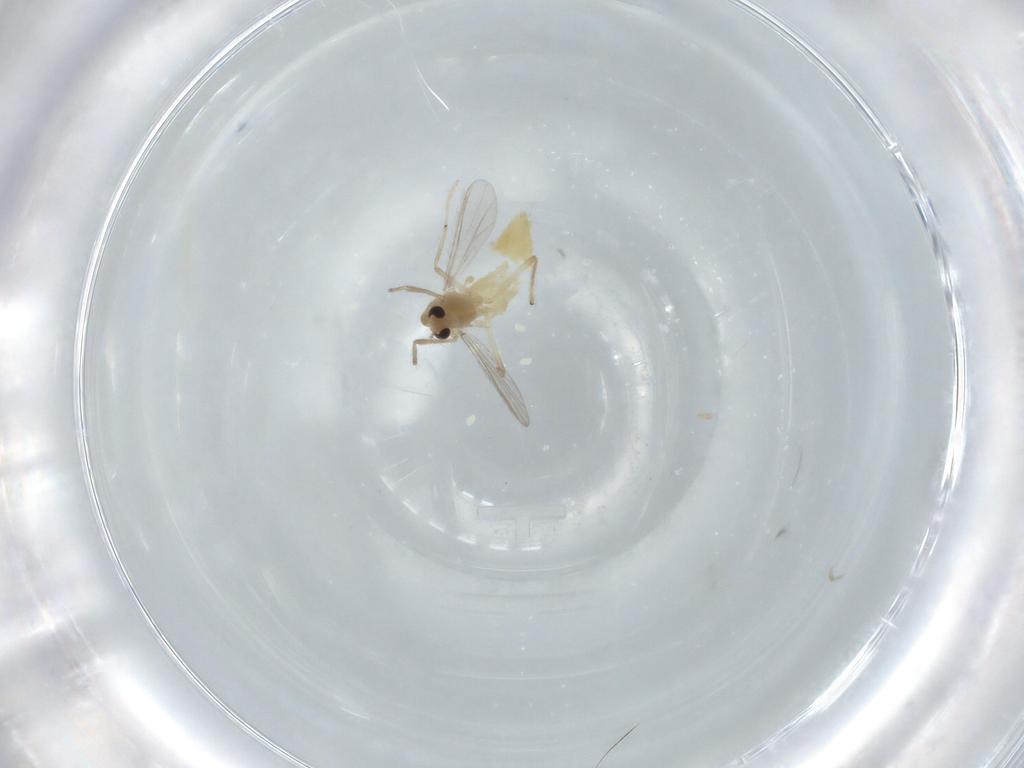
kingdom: Animalia
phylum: Arthropoda
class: Insecta
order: Diptera
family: Chironomidae
